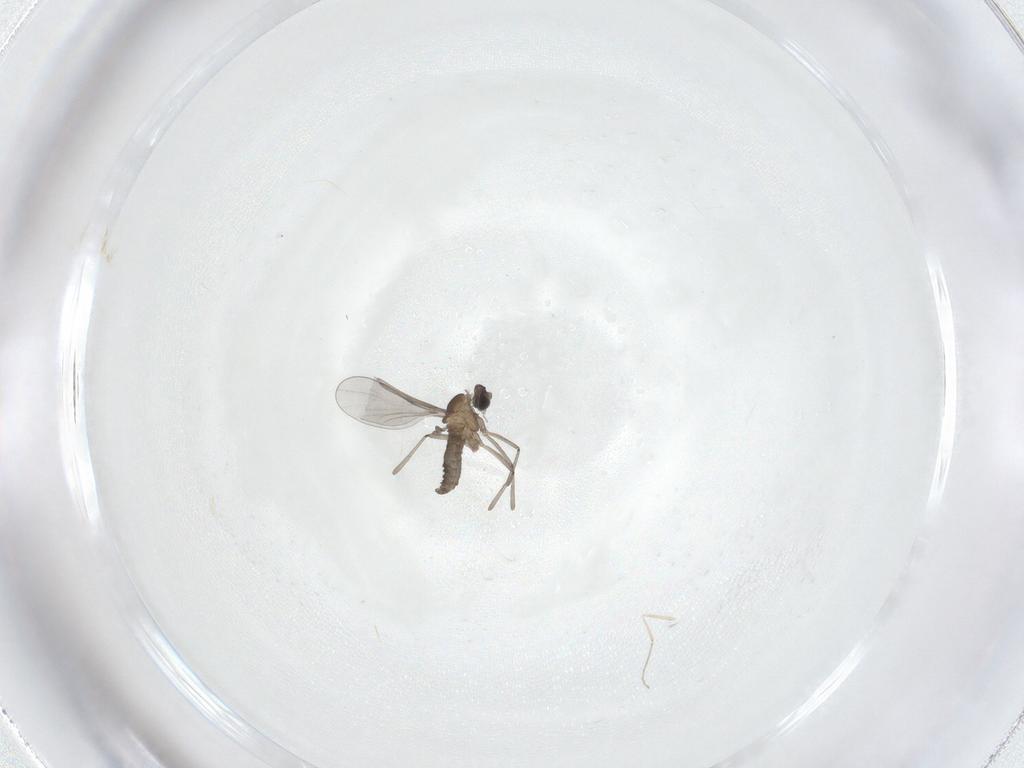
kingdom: Animalia
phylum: Arthropoda
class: Insecta
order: Diptera
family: Cecidomyiidae
